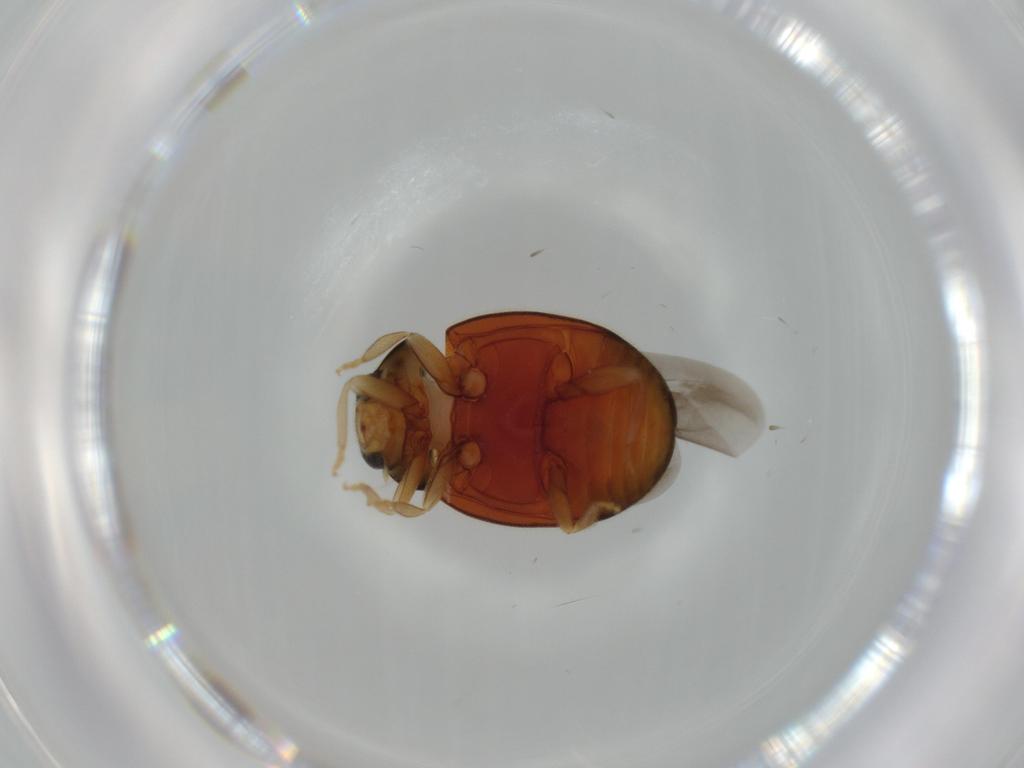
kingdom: Animalia
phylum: Arthropoda
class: Insecta
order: Coleoptera
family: Coccinellidae
